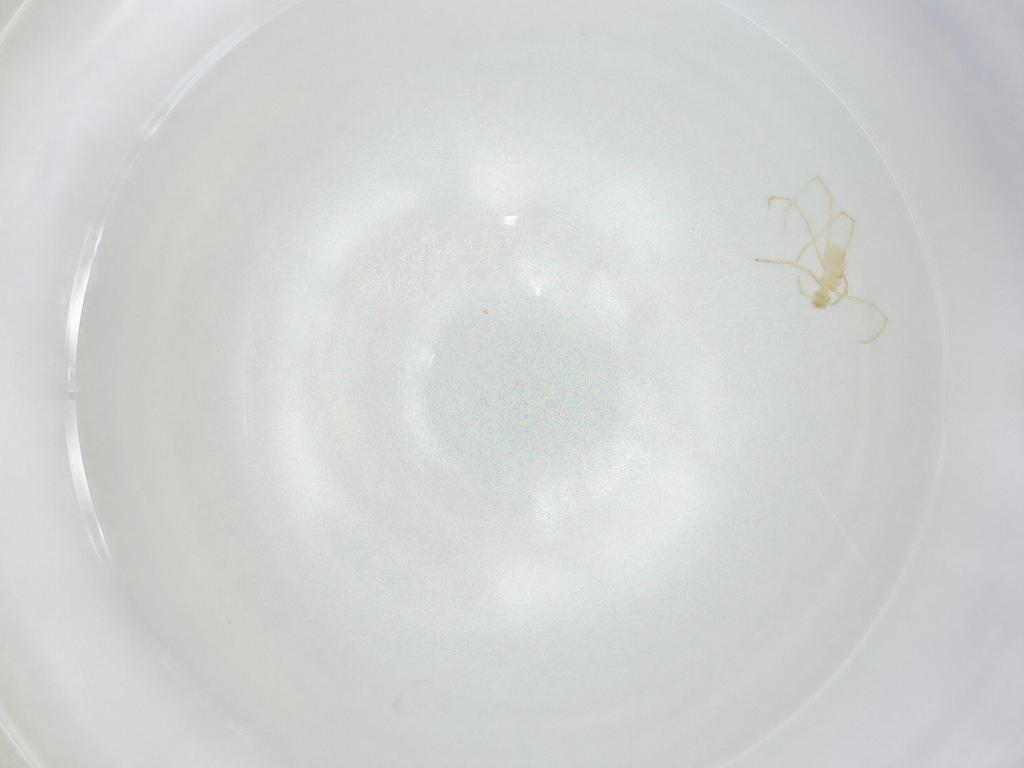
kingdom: Animalia
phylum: Arthropoda
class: Arachnida
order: Trombidiformes
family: Erythraeidae
